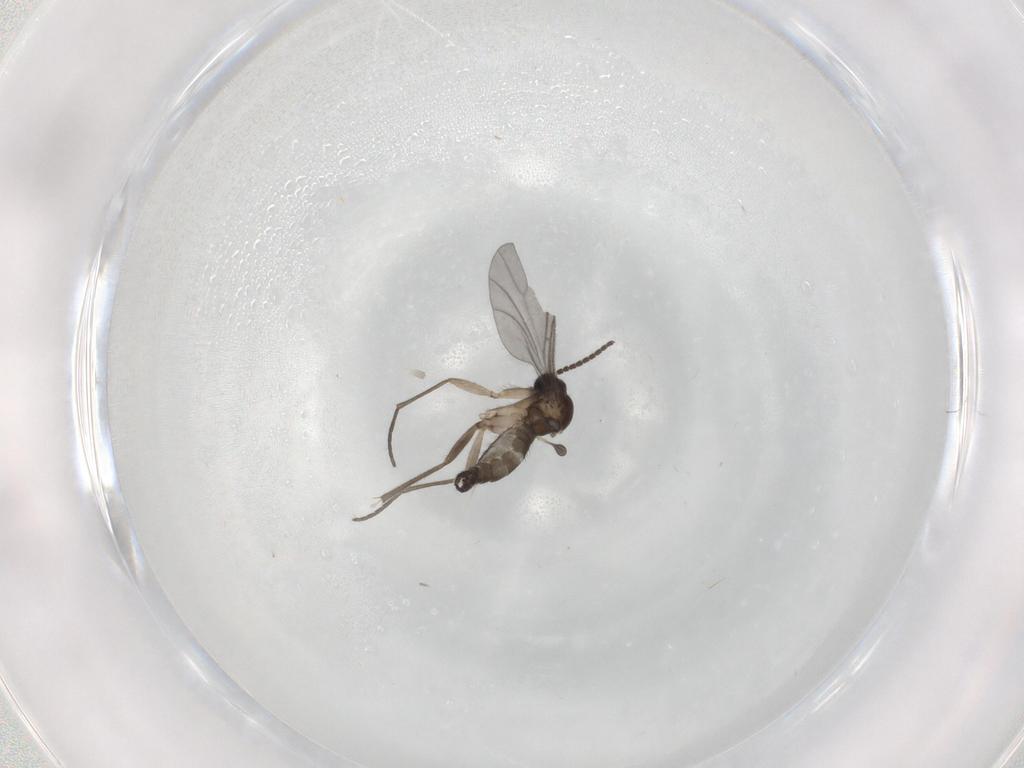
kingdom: Animalia
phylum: Arthropoda
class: Insecta
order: Diptera
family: Sciaridae
